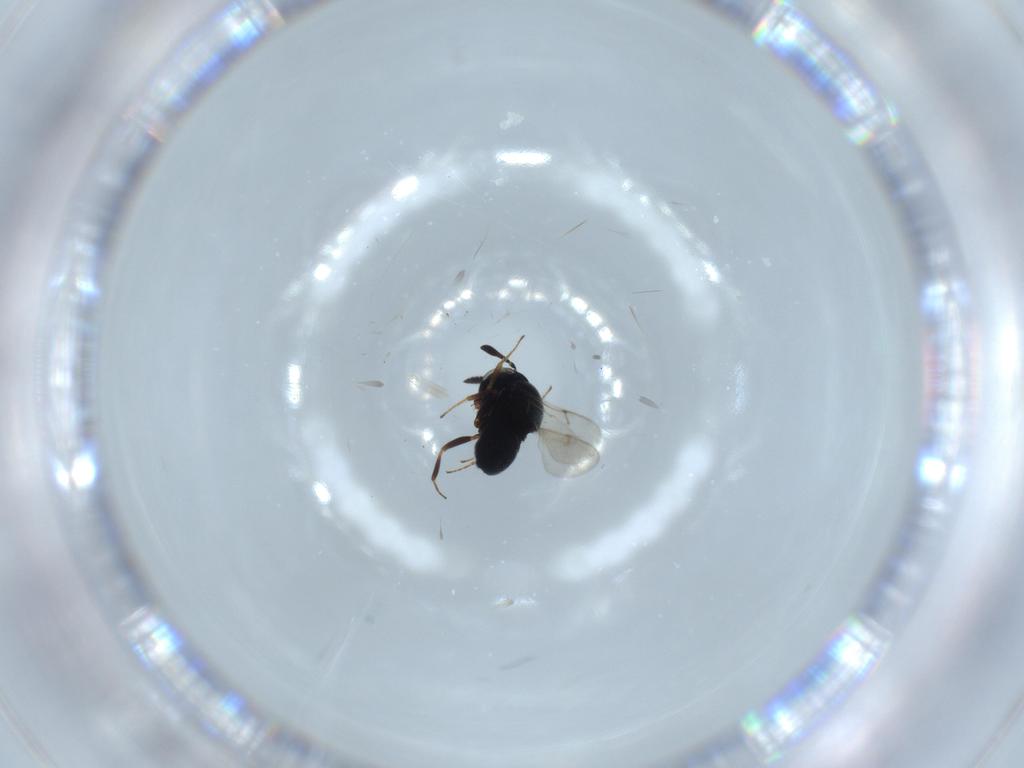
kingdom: Animalia
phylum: Arthropoda
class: Insecta
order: Hymenoptera
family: Scelionidae
